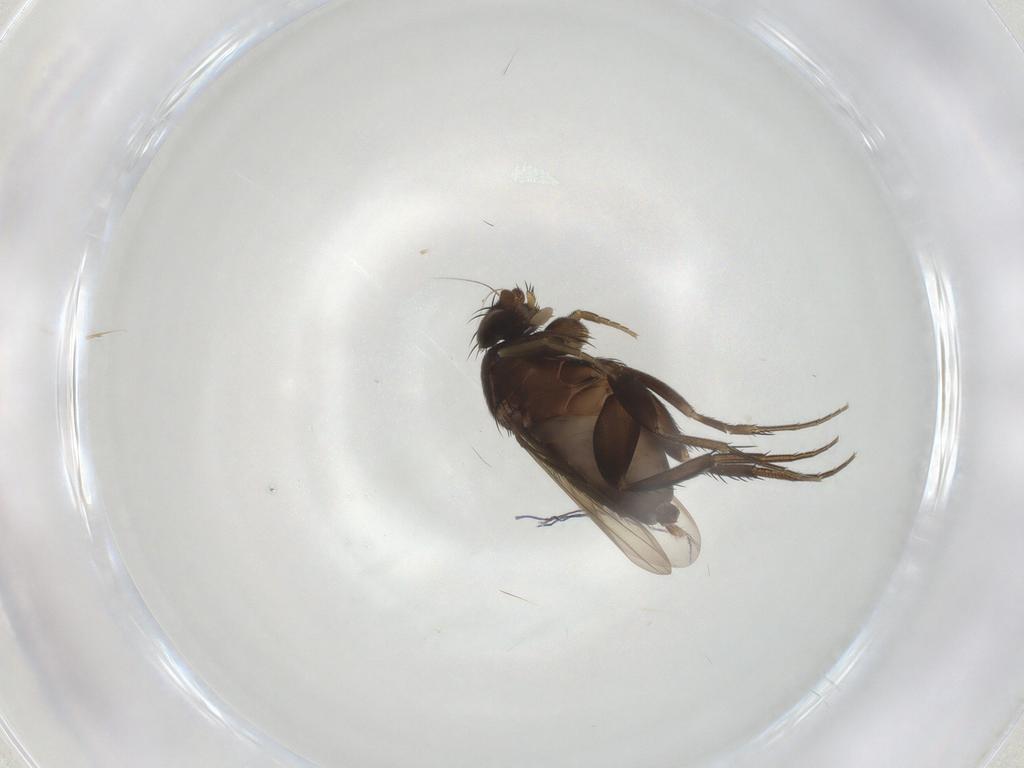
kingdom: Animalia
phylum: Arthropoda
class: Insecta
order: Diptera
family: Phoridae
